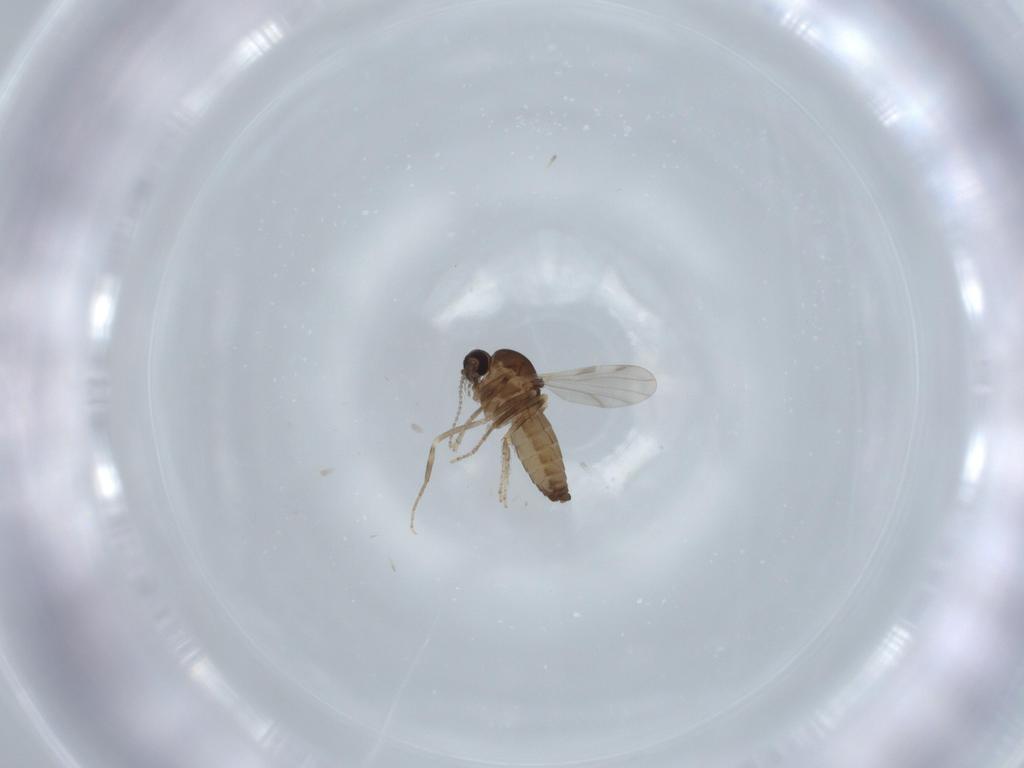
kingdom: Animalia
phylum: Arthropoda
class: Insecta
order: Diptera
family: Ceratopogonidae
